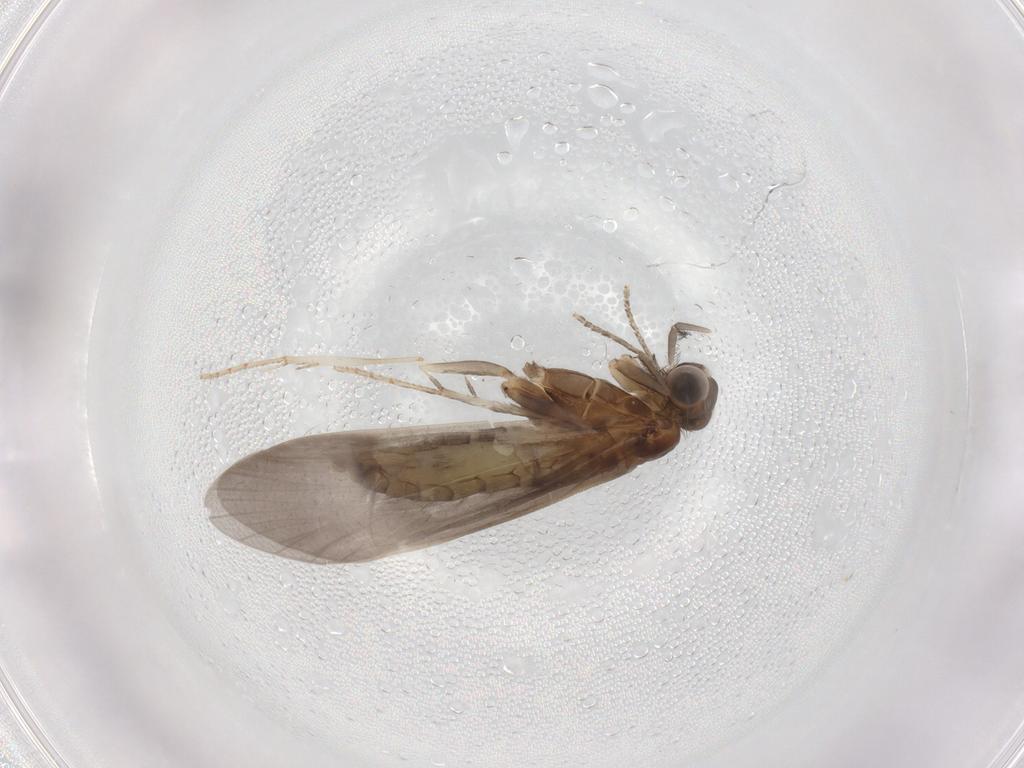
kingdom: Animalia
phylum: Arthropoda
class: Insecta
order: Trichoptera
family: Helicopsychidae
